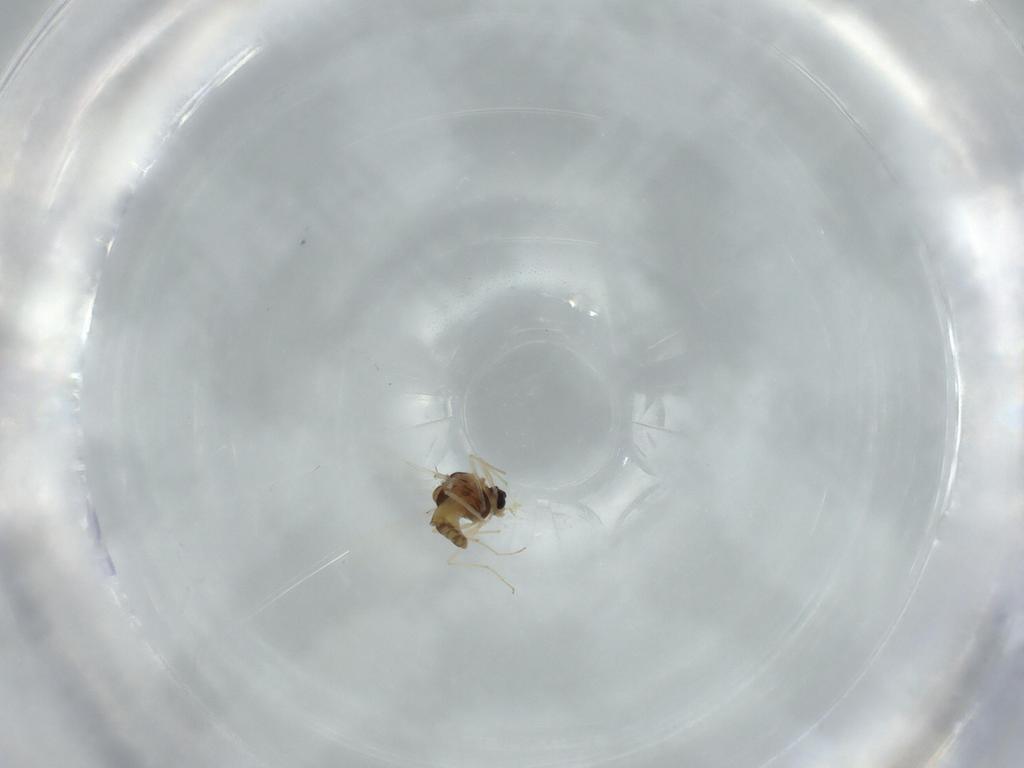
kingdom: Animalia
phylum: Arthropoda
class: Insecta
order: Diptera
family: Chironomidae
